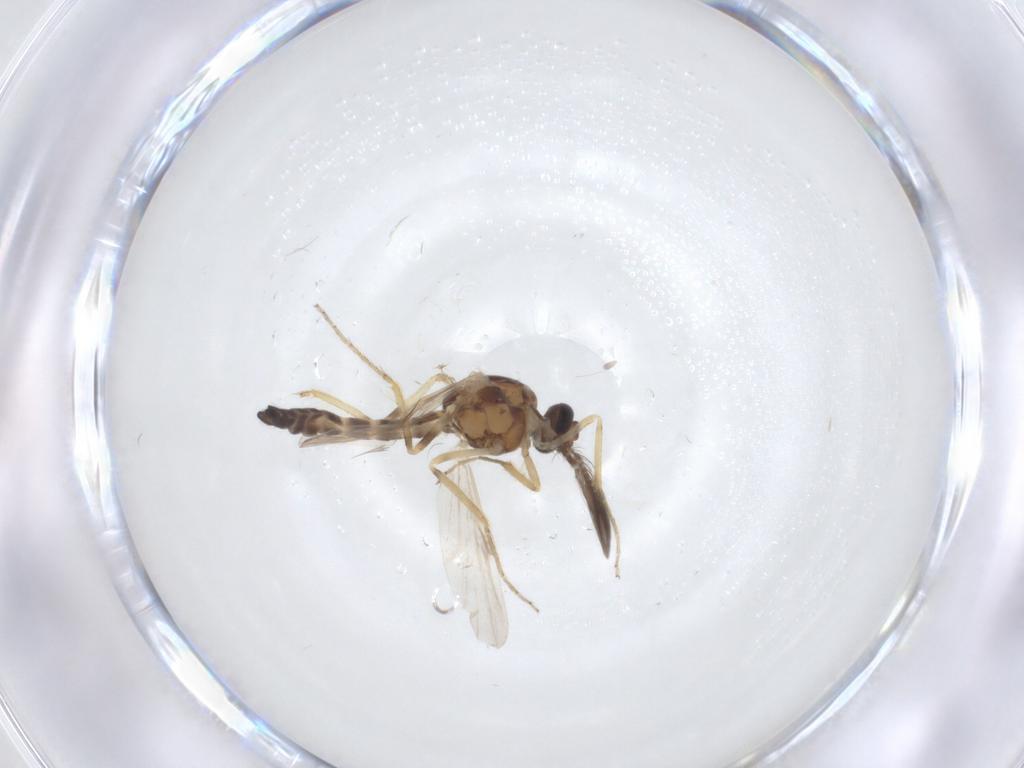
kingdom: Animalia
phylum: Arthropoda
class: Insecta
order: Diptera
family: Ceratopogonidae
